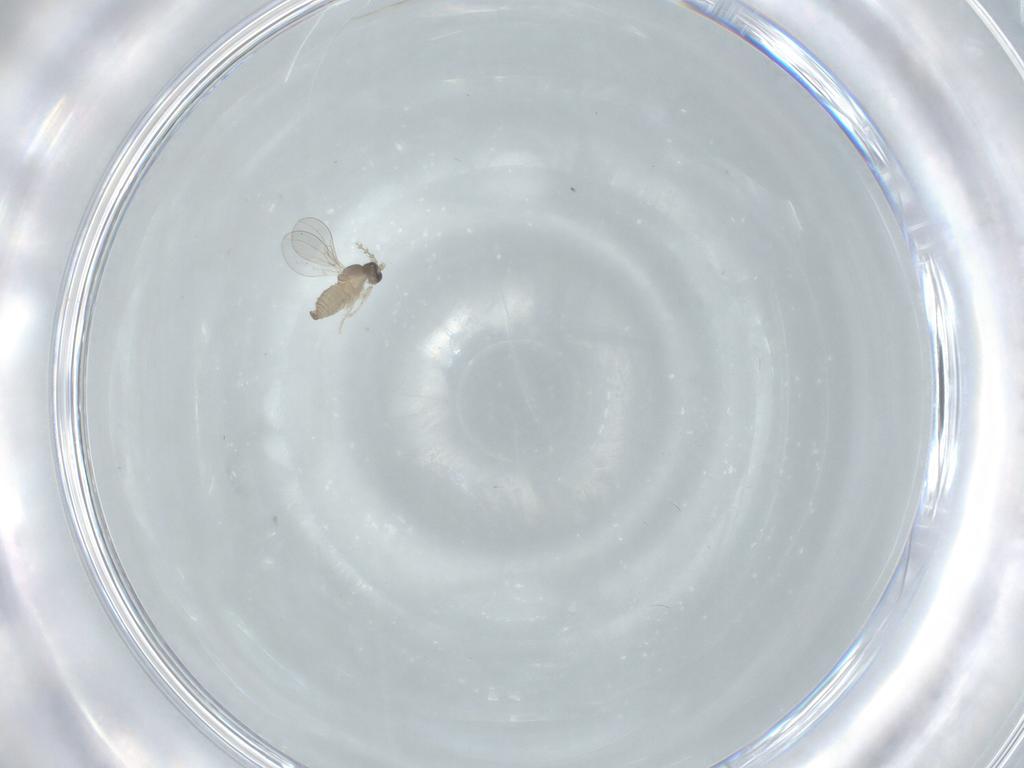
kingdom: Animalia
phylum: Arthropoda
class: Insecta
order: Diptera
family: Cecidomyiidae
